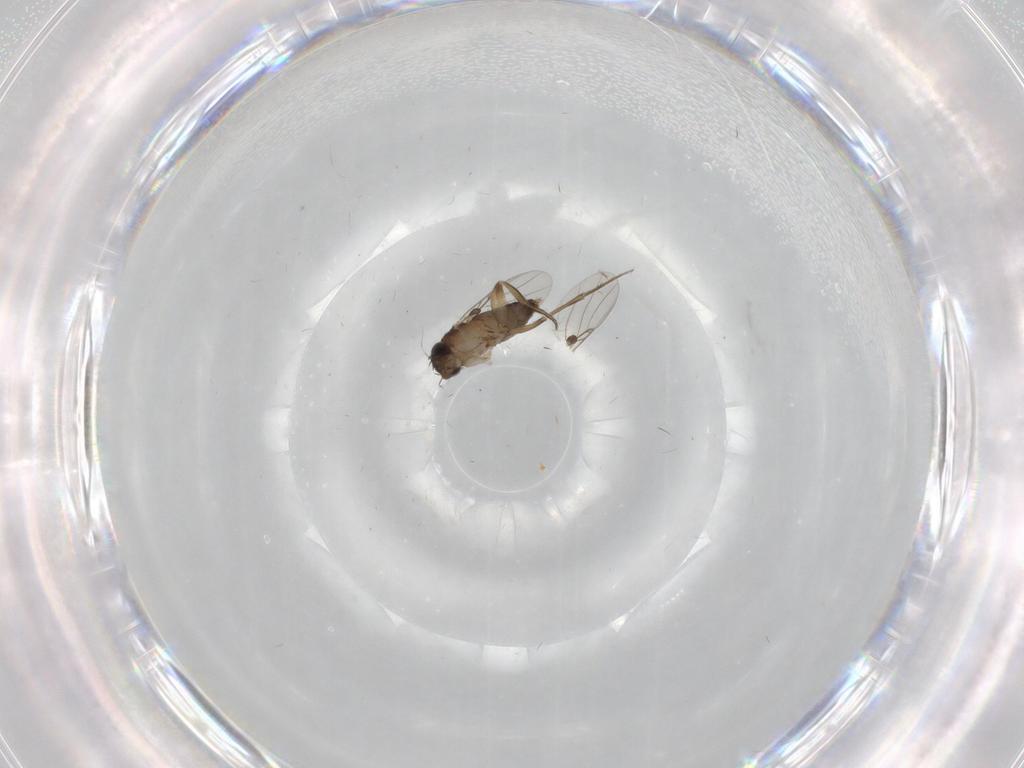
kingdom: Animalia
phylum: Arthropoda
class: Insecta
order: Diptera
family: Phoridae
